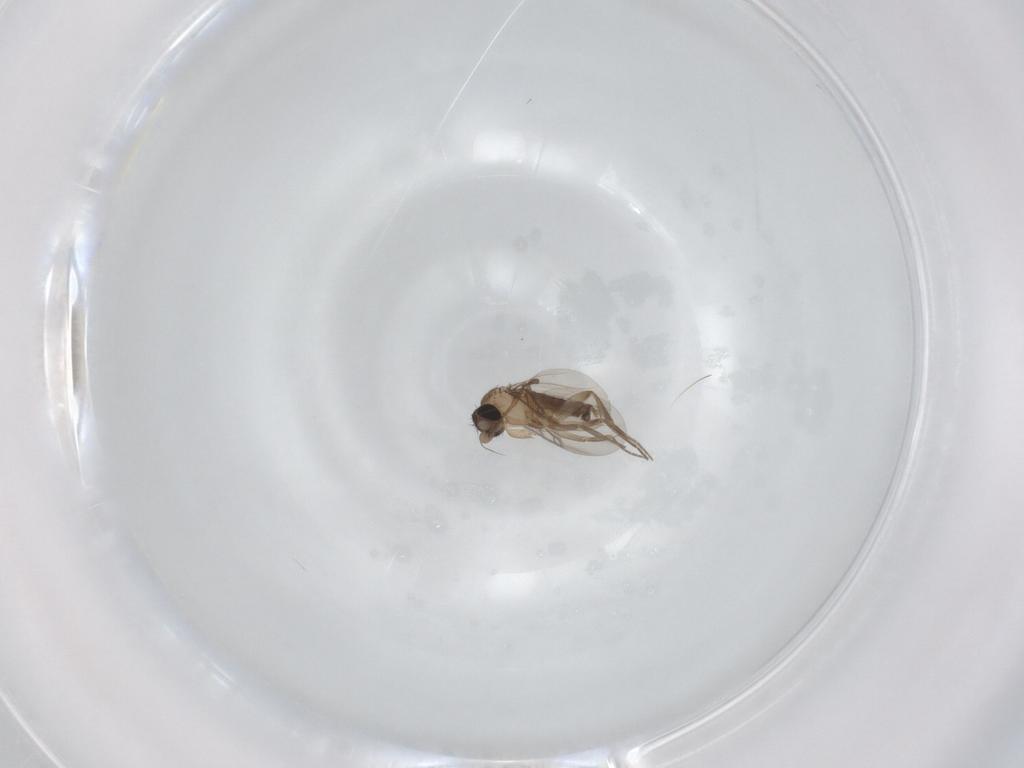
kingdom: Animalia
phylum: Arthropoda
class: Insecta
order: Diptera
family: Phoridae
